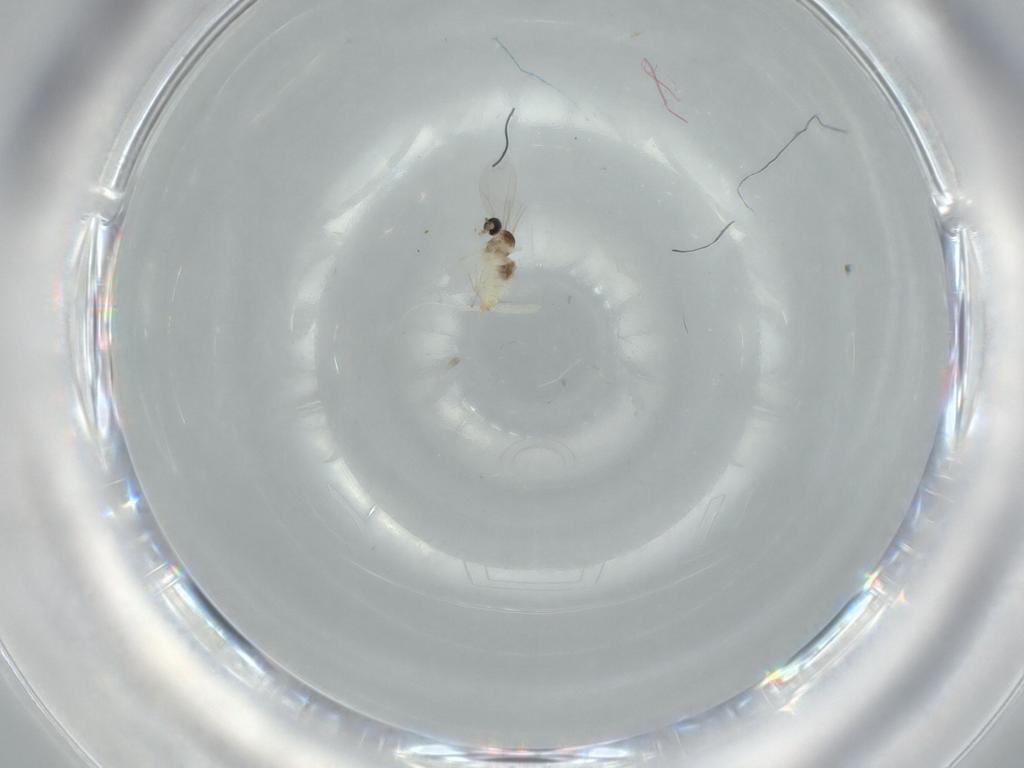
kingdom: Animalia
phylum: Arthropoda
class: Insecta
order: Diptera
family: Cecidomyiidae
